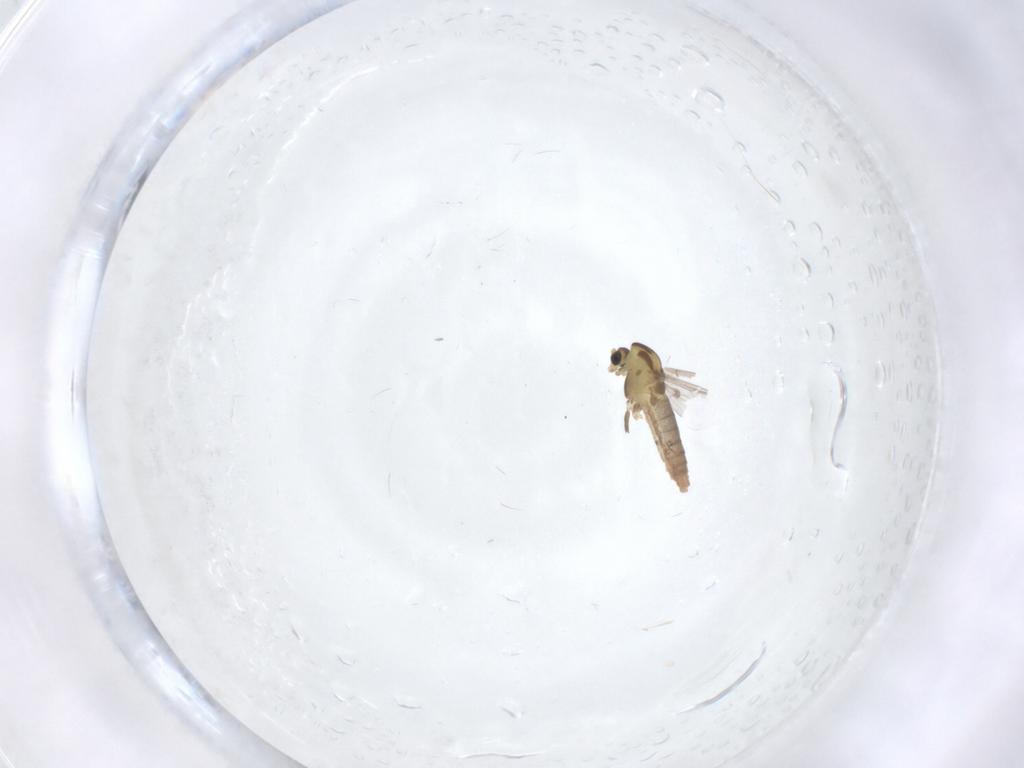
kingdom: Animalia
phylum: Arthropoda
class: Insecta
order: Diptera
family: Chironomidae
